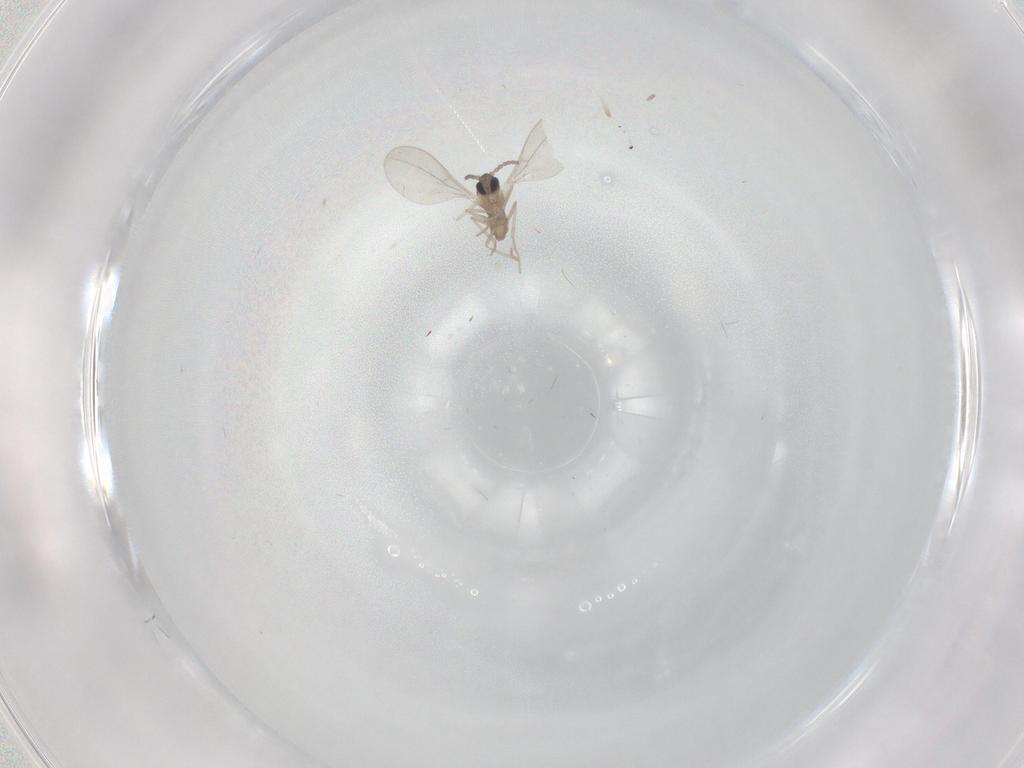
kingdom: Animalia
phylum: Arthropoda
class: Insecta
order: Diptera
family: Cecidomyiidae
